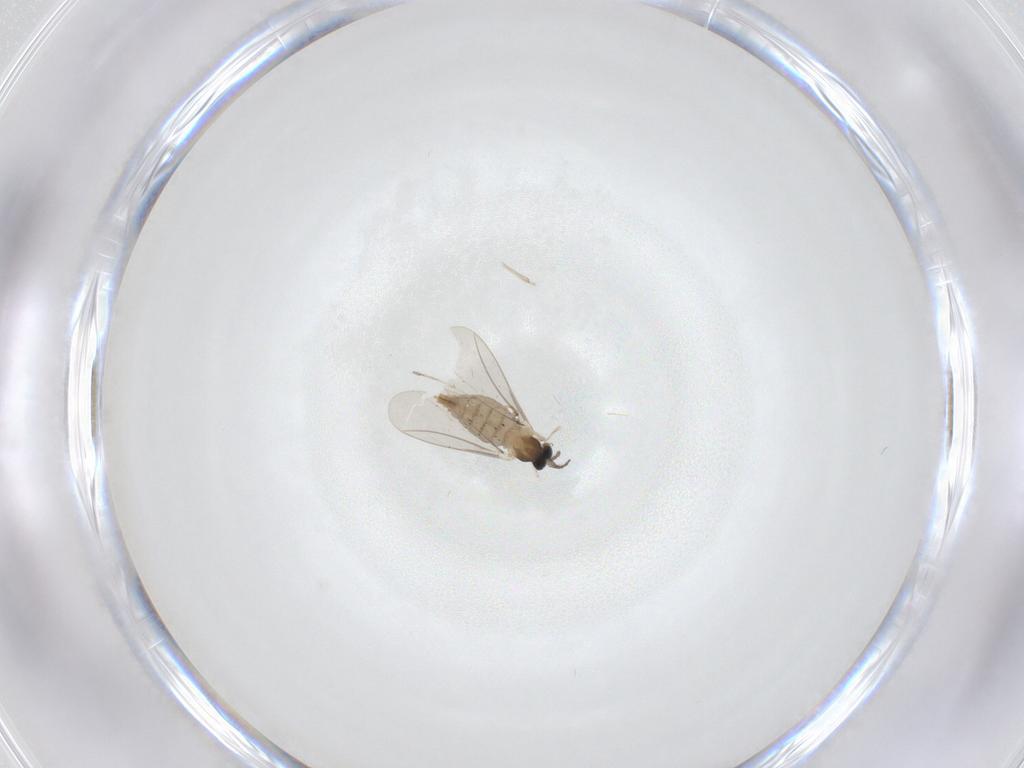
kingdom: Animalia
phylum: Arthropoda
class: Insecta
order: Diptera
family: Cecidomyiidae
